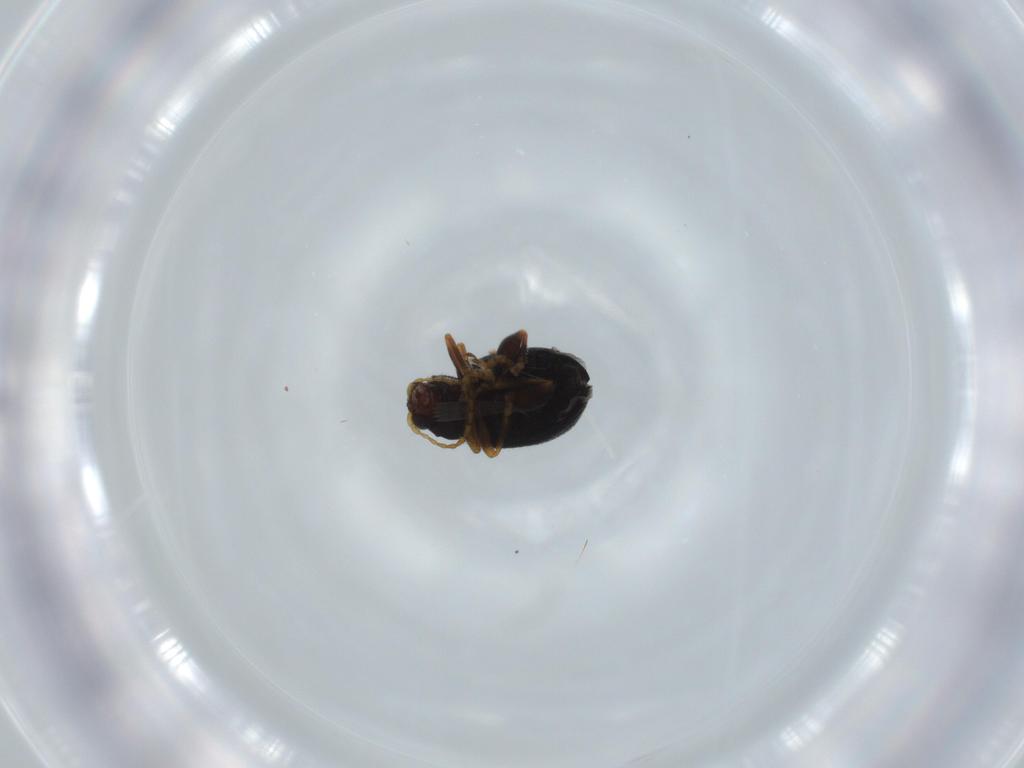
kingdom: Animalia
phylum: Arthropoda
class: Insecta
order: Coleoptera
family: Chrysomelidae
